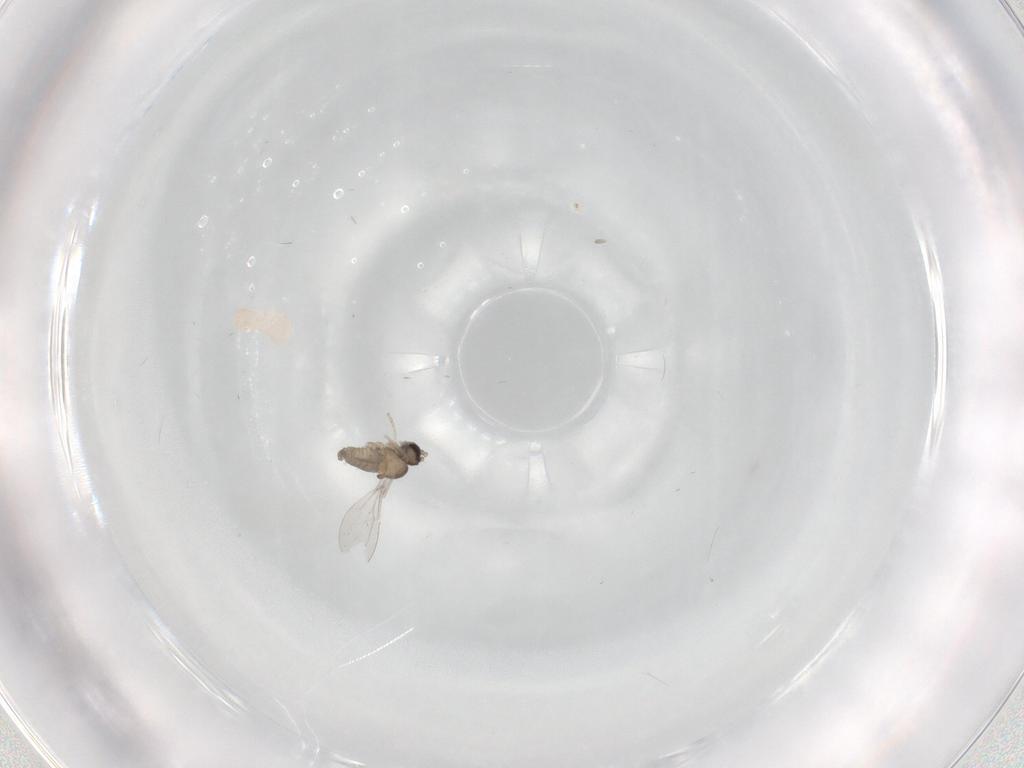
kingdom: Animalia
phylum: Arthropoda
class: Insecta
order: Diptera
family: Cecidomyiidae
